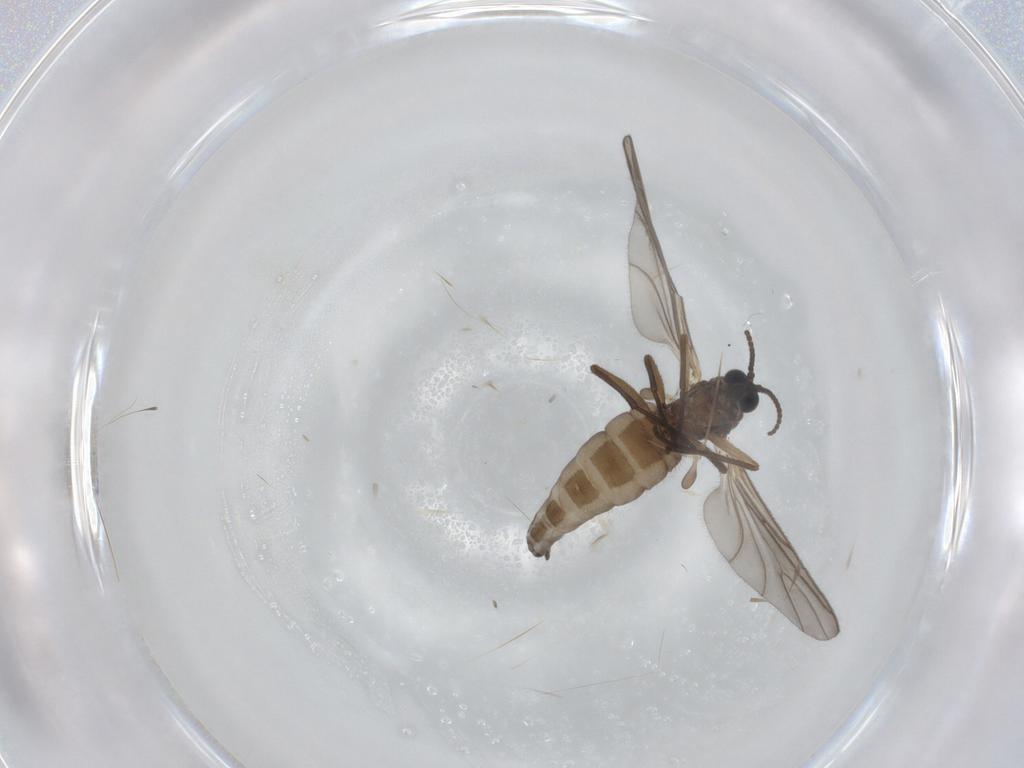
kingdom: Animalia
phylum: Arthropoda
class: Insecta
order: Diptera
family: Sciaridae
